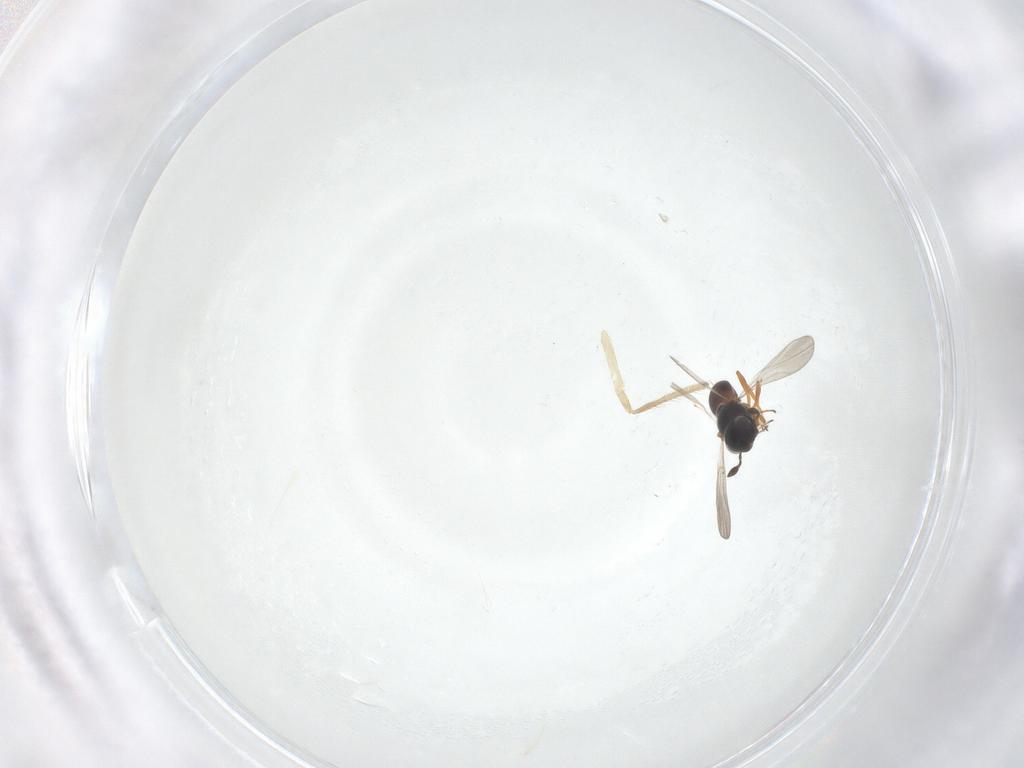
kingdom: Animalia
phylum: Arthropoda
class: Insecta
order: Hymenoptera
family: Platygastridae
